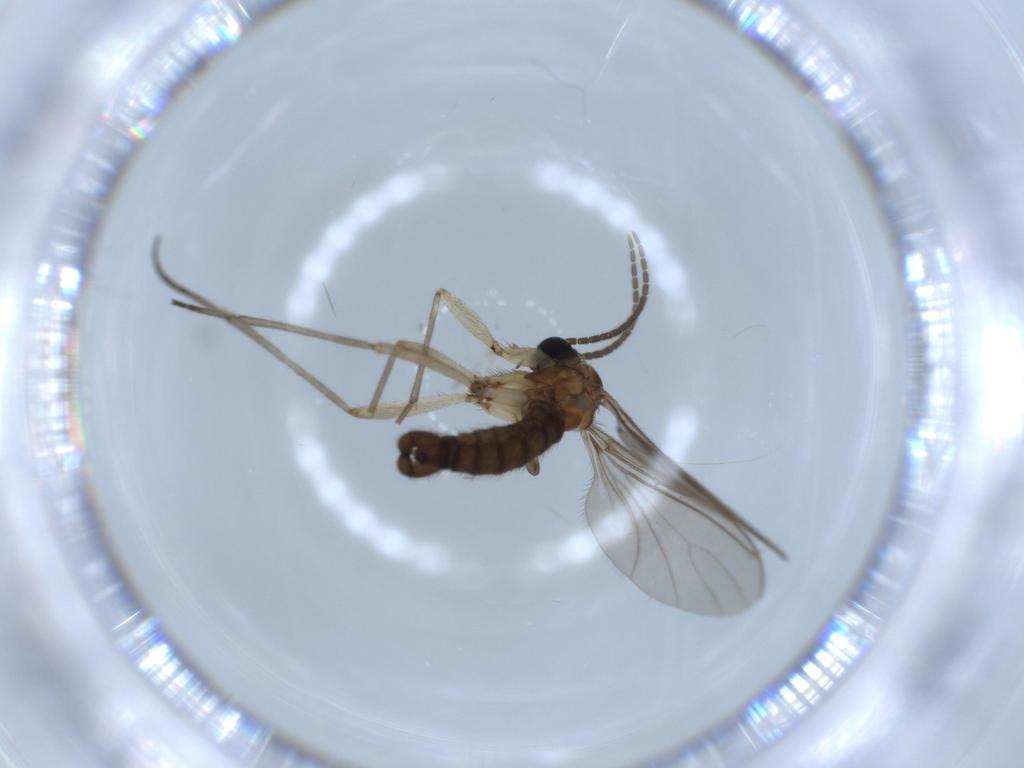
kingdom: Animalia
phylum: Arthropoda
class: Insecta
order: Diptera
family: Sciaridae
